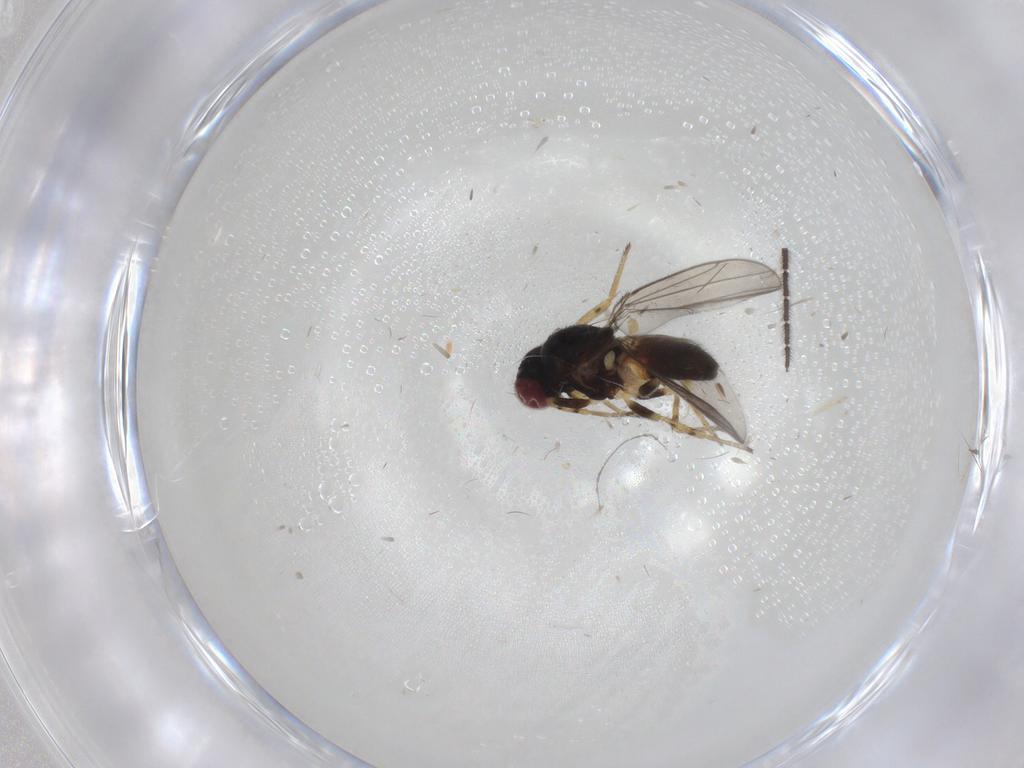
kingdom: Animalia
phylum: Arthropoda
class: Insecta
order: Diptera
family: Chloropidae
